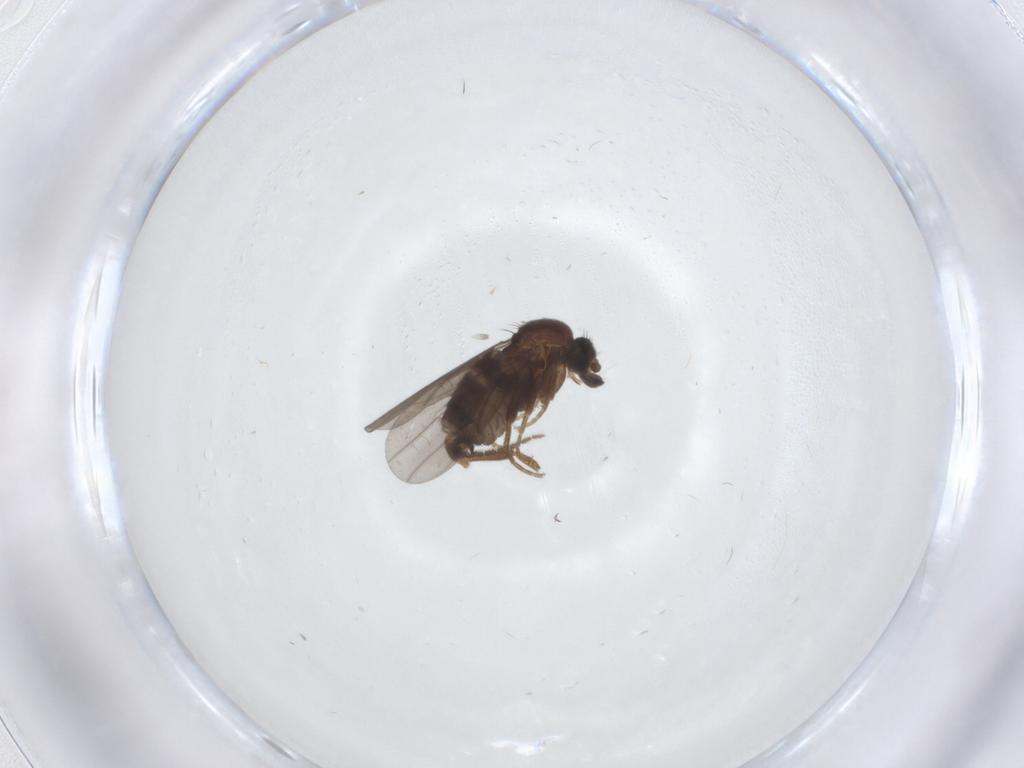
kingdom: Animalia
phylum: Arthropoda
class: Insecta
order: Diptera
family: Phoridae
